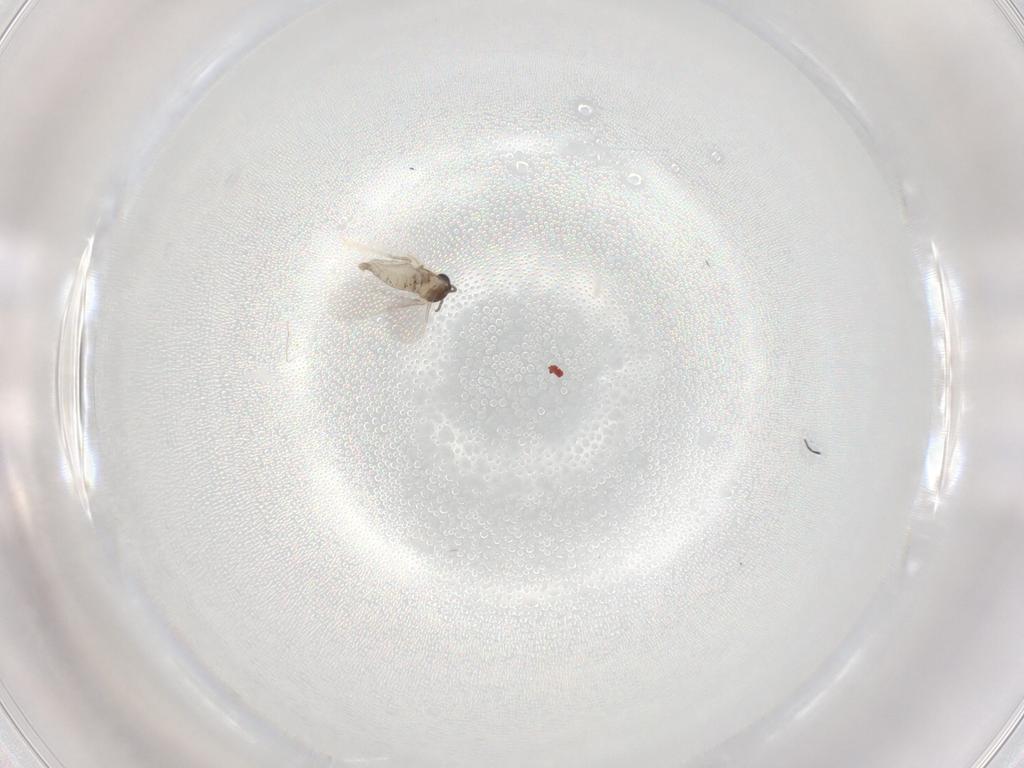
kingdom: Animalia
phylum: Arthropoda
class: Insecta
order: Diptera
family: Cecidomyiidae
